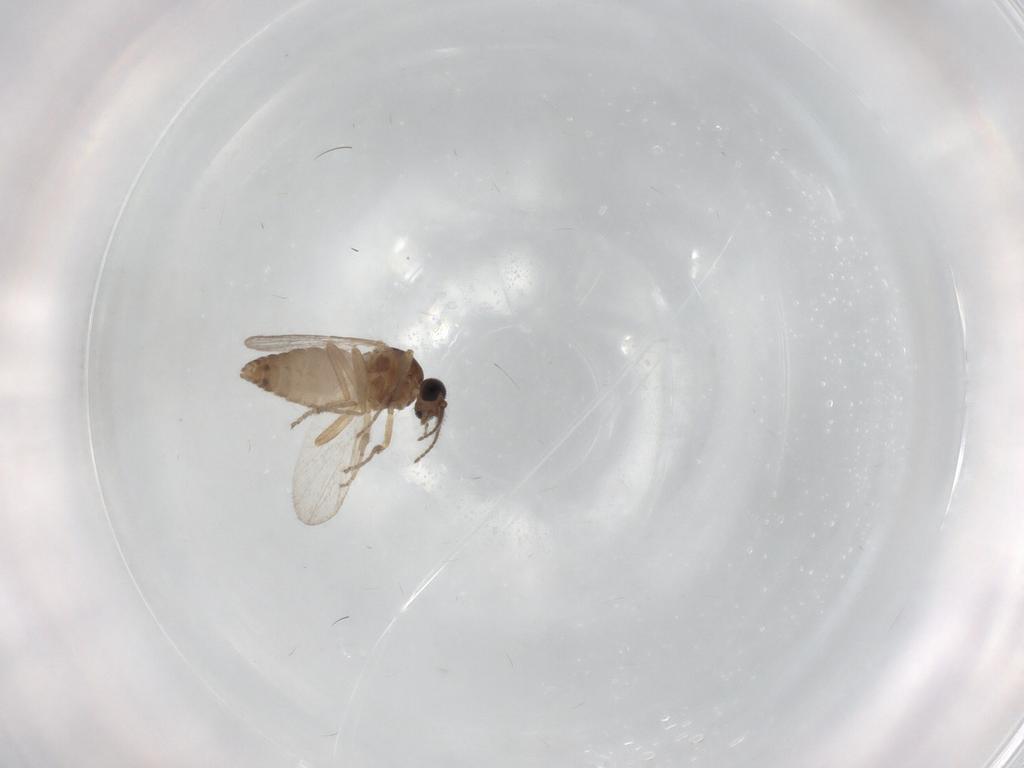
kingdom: Animalia
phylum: Arthropoda
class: Insecta
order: Diptera
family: Ceratopogonidae
